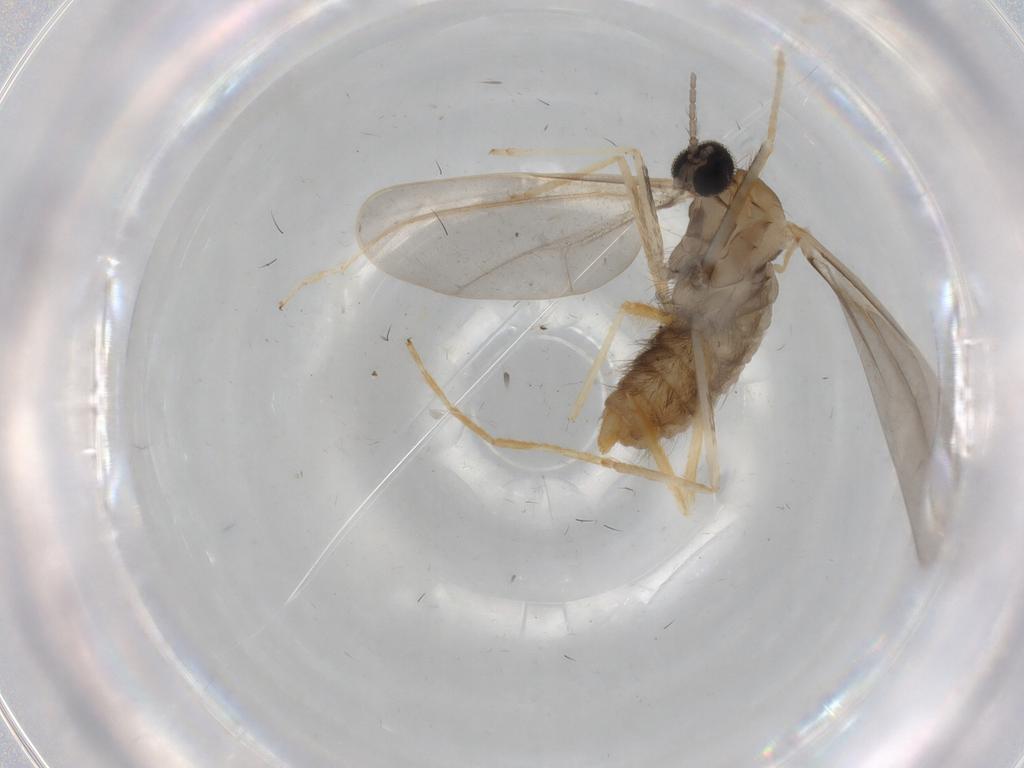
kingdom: Animalia
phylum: Arthropoda
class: Insecta
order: Diptera
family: Cecidomyiidae
